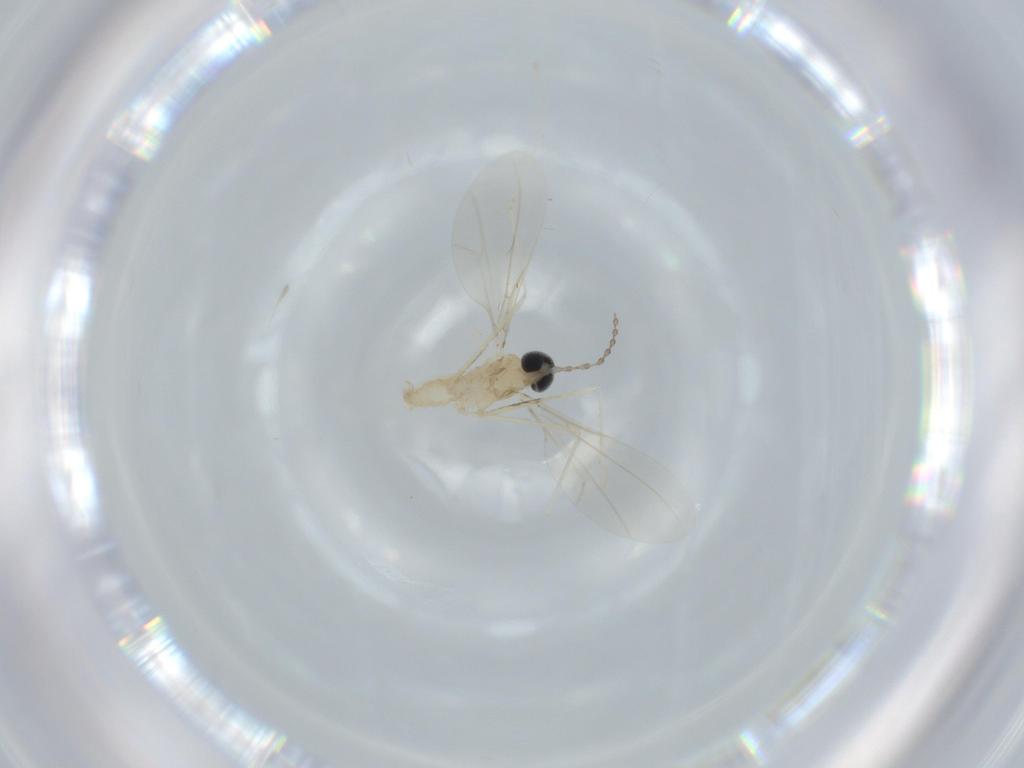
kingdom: Animalia
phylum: Arthropoda
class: Insecta
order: Diptera
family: Cecidomyiidae
